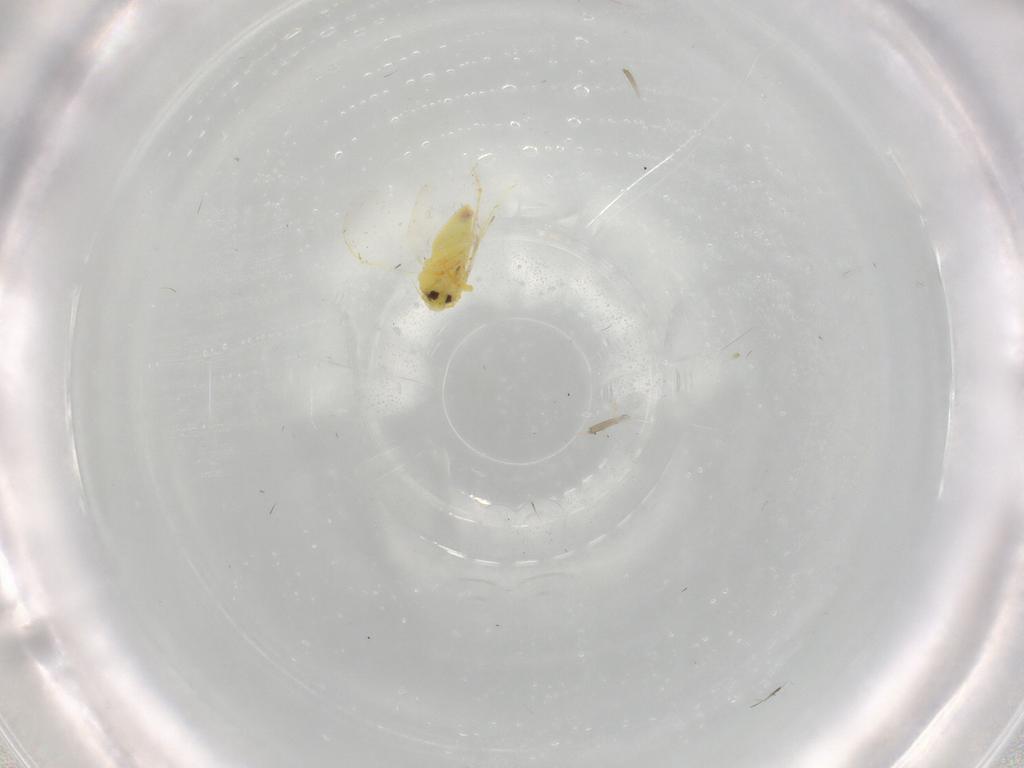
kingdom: Animalia
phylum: Arthropoda
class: Insecta
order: Hemiptera
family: Aleyrodidae
